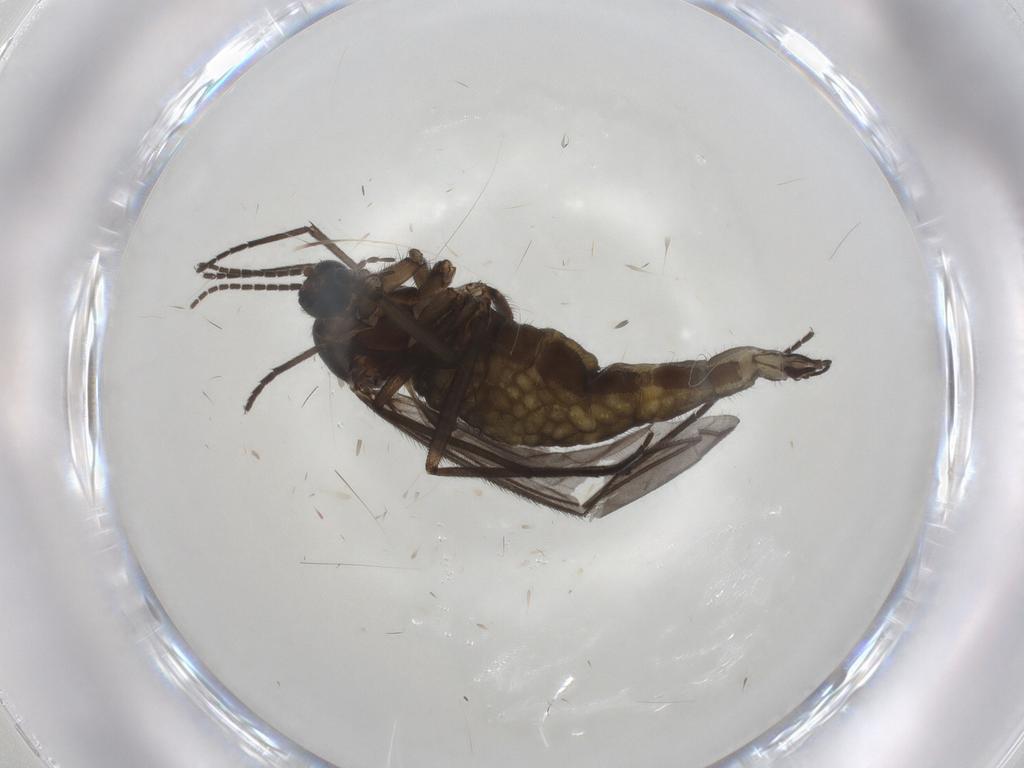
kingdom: Animalia
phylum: Arthropoda
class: Insecta
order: Diptera
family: Sciaridae
